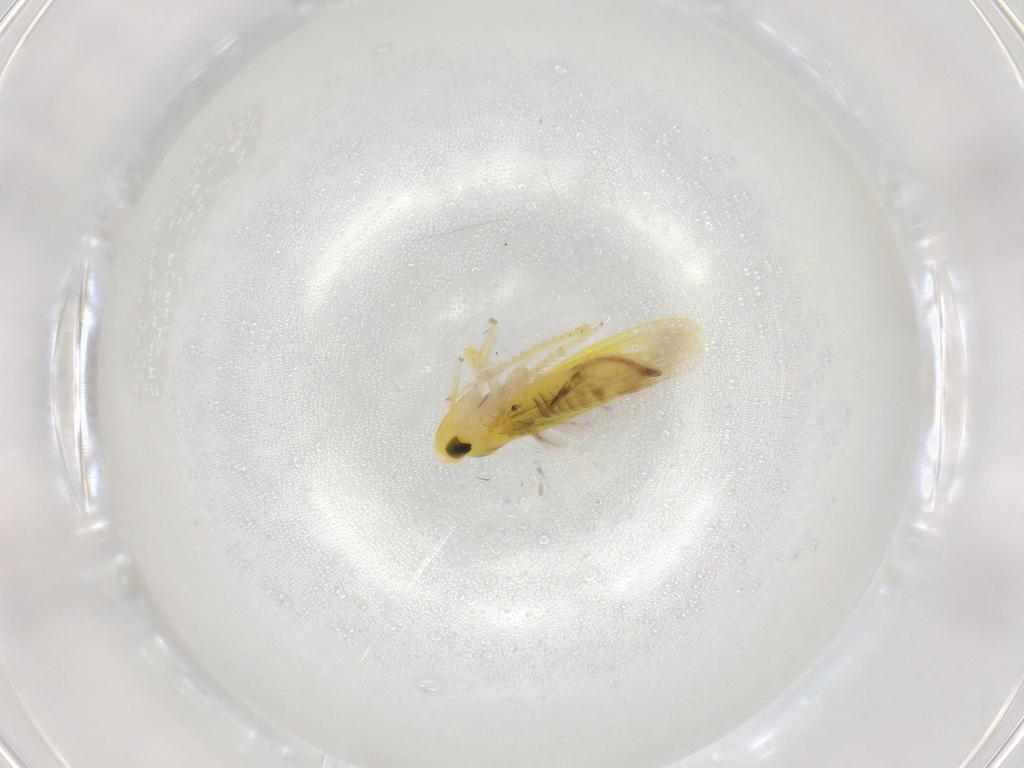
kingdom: Animalia
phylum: Arthropoda
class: Insecta
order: Hemiptera
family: Cicadellidae
